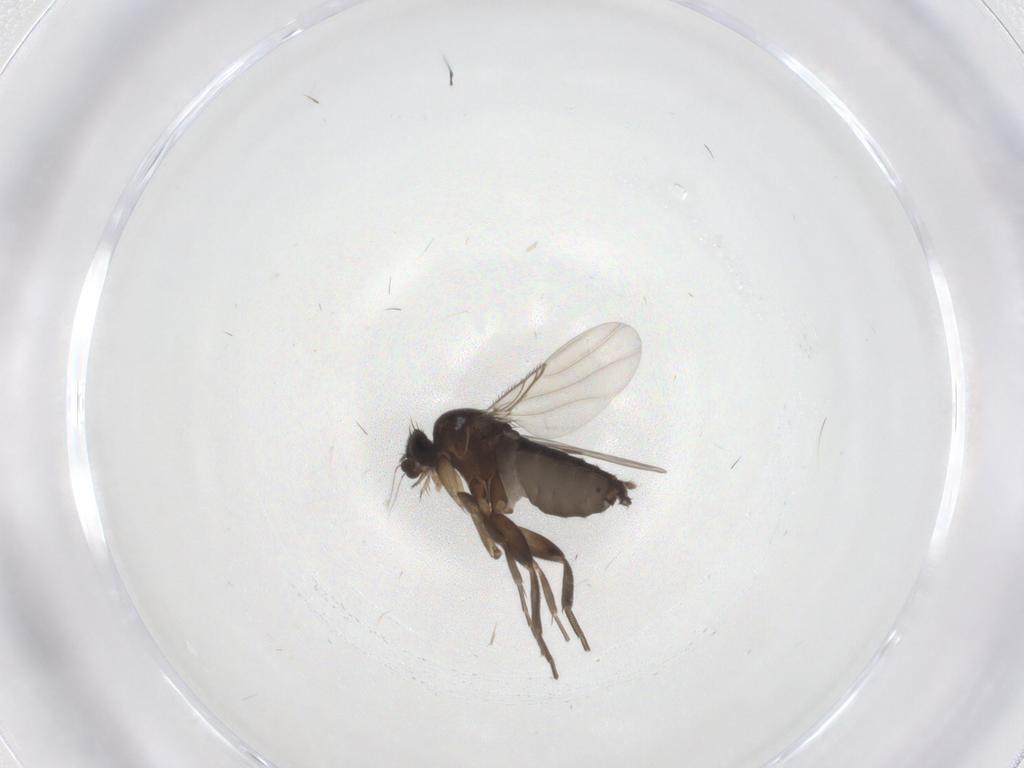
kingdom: Animalia
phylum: Arthropoda
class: Insecta
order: Diptera
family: Phoridae
